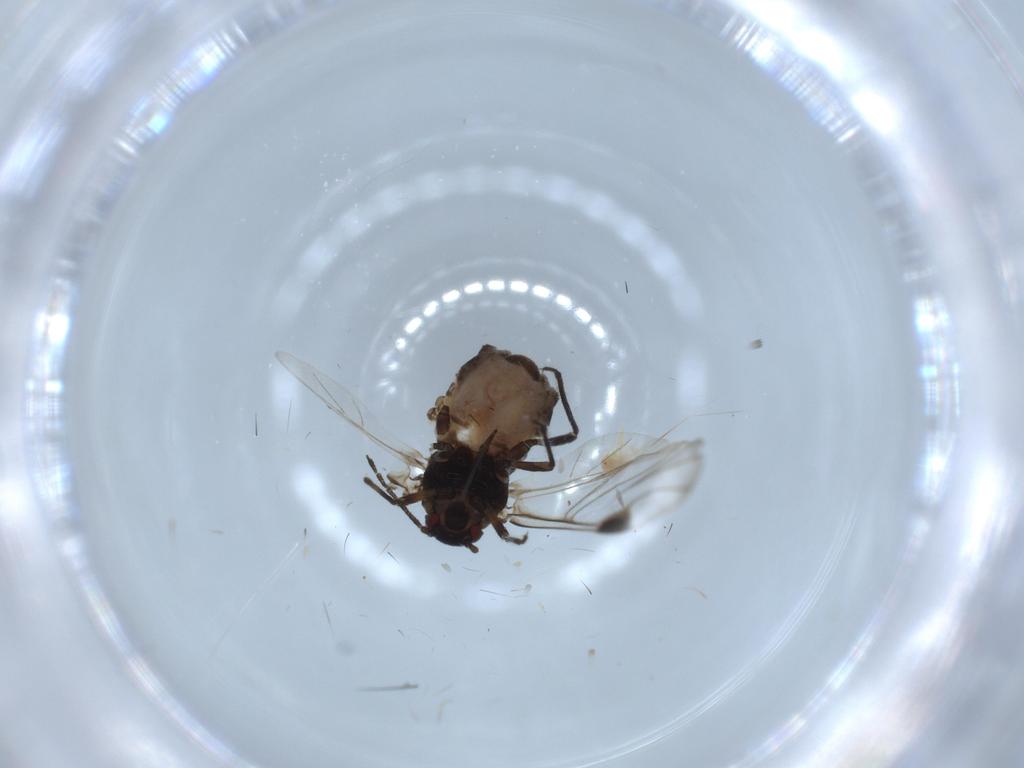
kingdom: Animalia
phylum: Arthropoda
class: Insecta
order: Hemiptera
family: Aphididae
